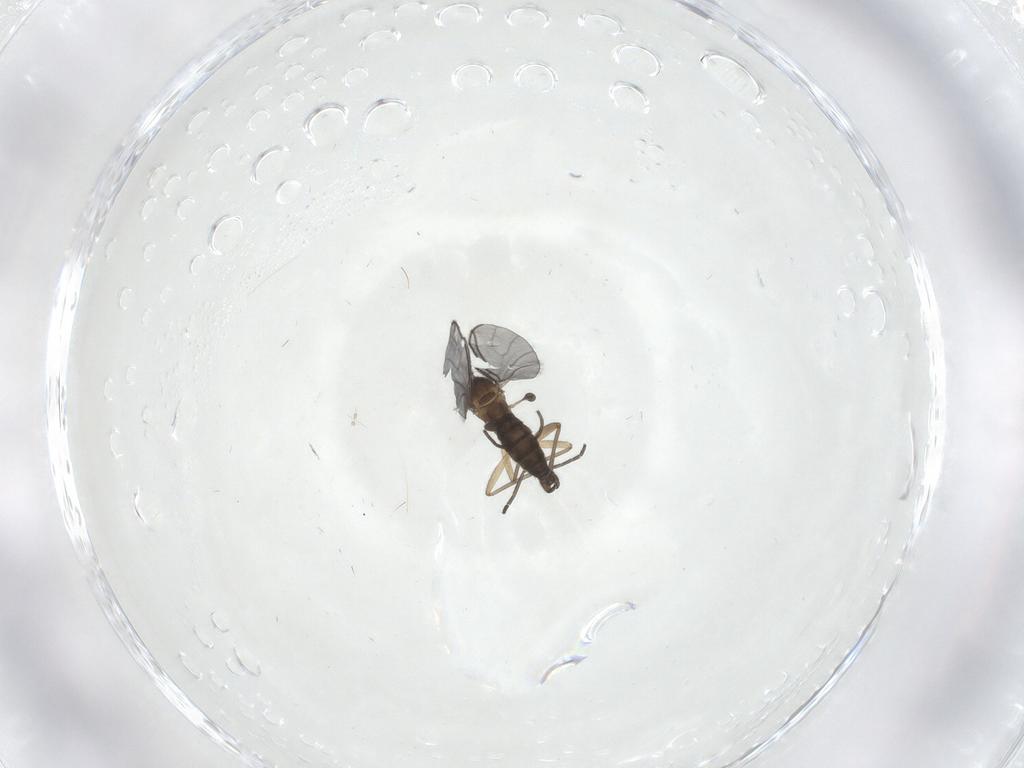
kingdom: Animalia
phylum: Arthropoda
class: Insecta
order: Diptera
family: Sciaridae
